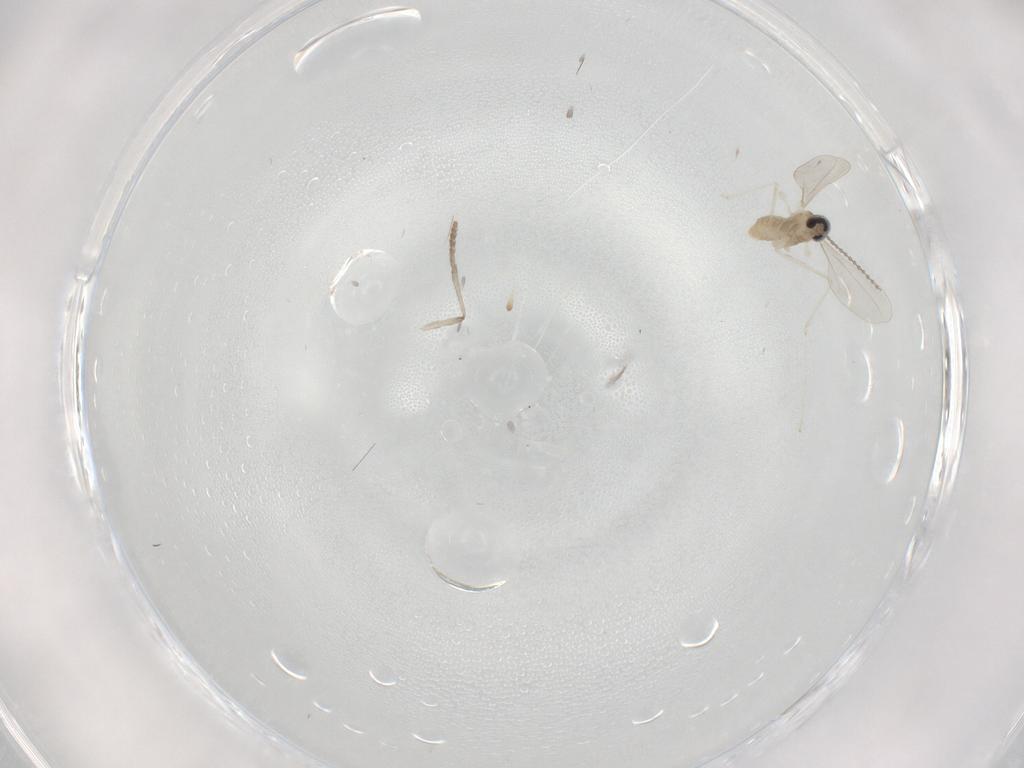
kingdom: Animalia
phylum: Arthropoda
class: Insecta
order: Diptera
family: Cecidomyiidae
